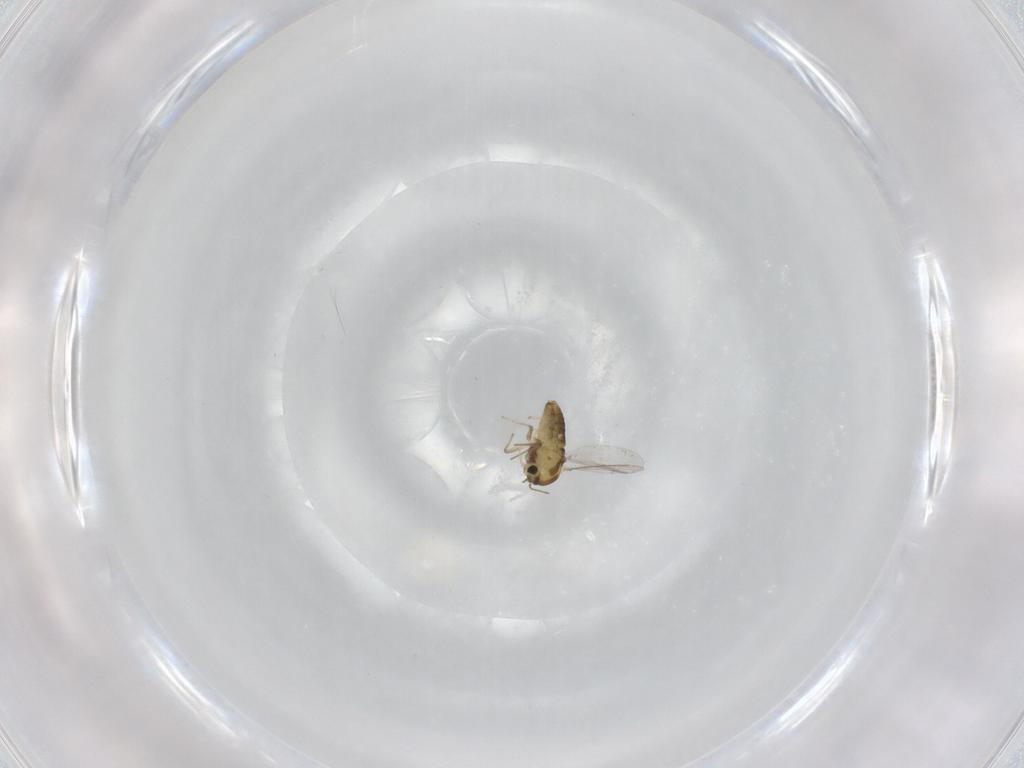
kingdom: Animalia
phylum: Arthropoda
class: Insecta
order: Diptera
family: Chironomidae
